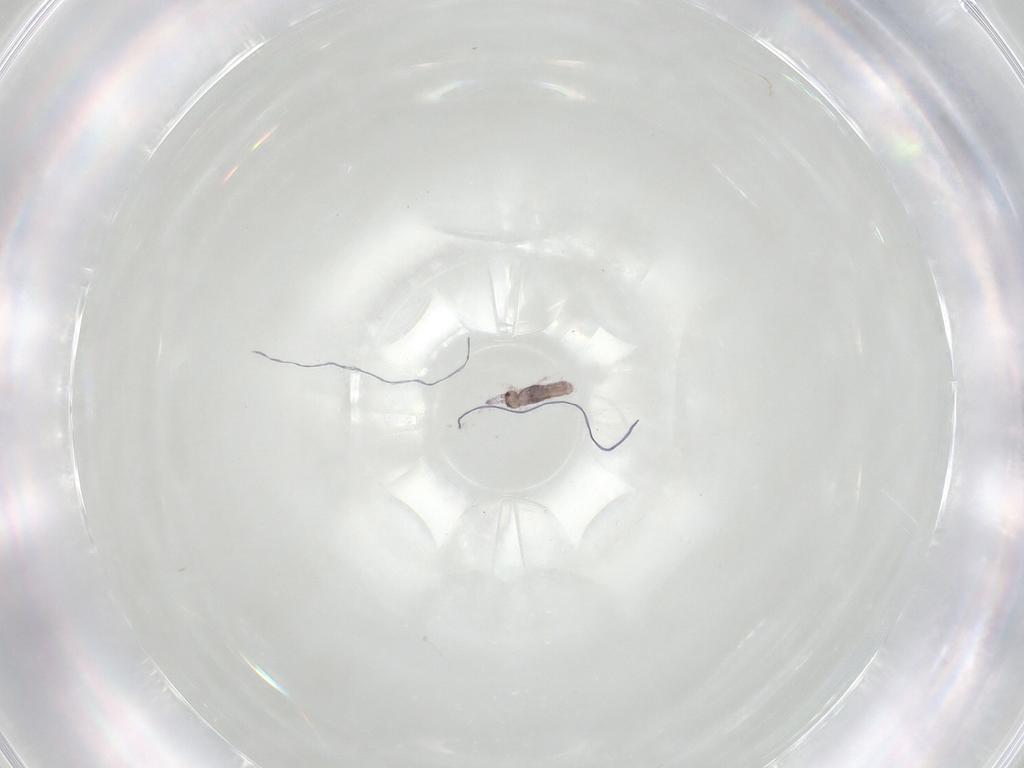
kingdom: Animalia
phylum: Arthropoda
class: Collembola
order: Entomobryomorpha
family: Entomobryidae
